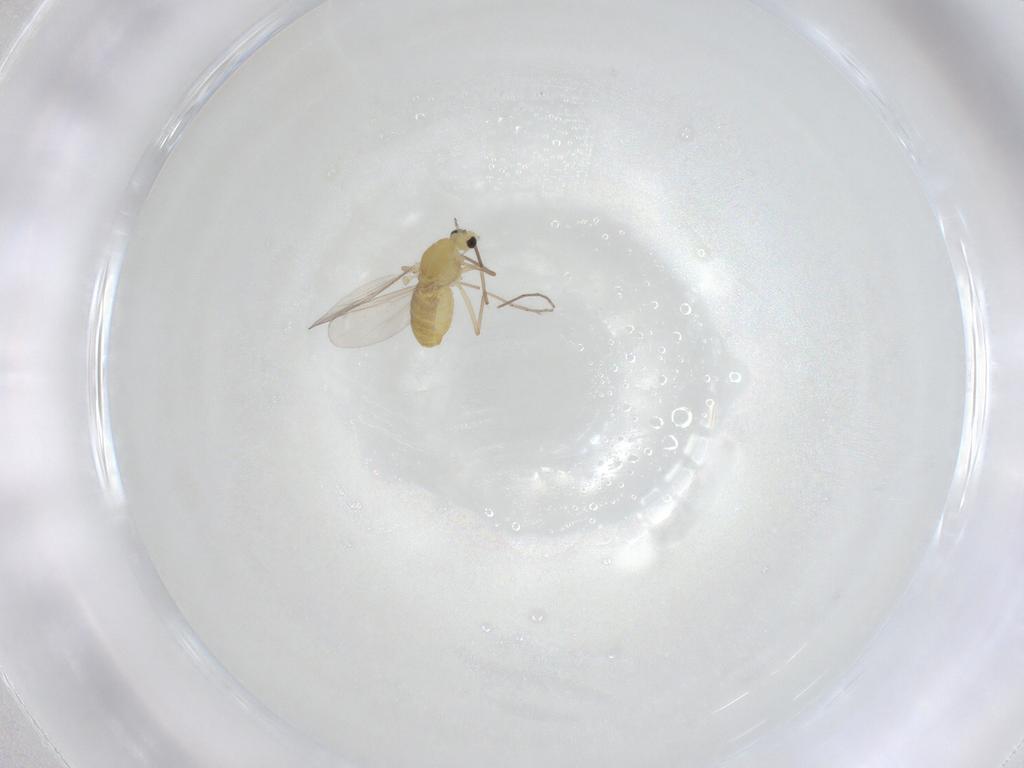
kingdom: Animalia
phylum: Arthropoda
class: Insecta
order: Diptera
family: Chironomidae
